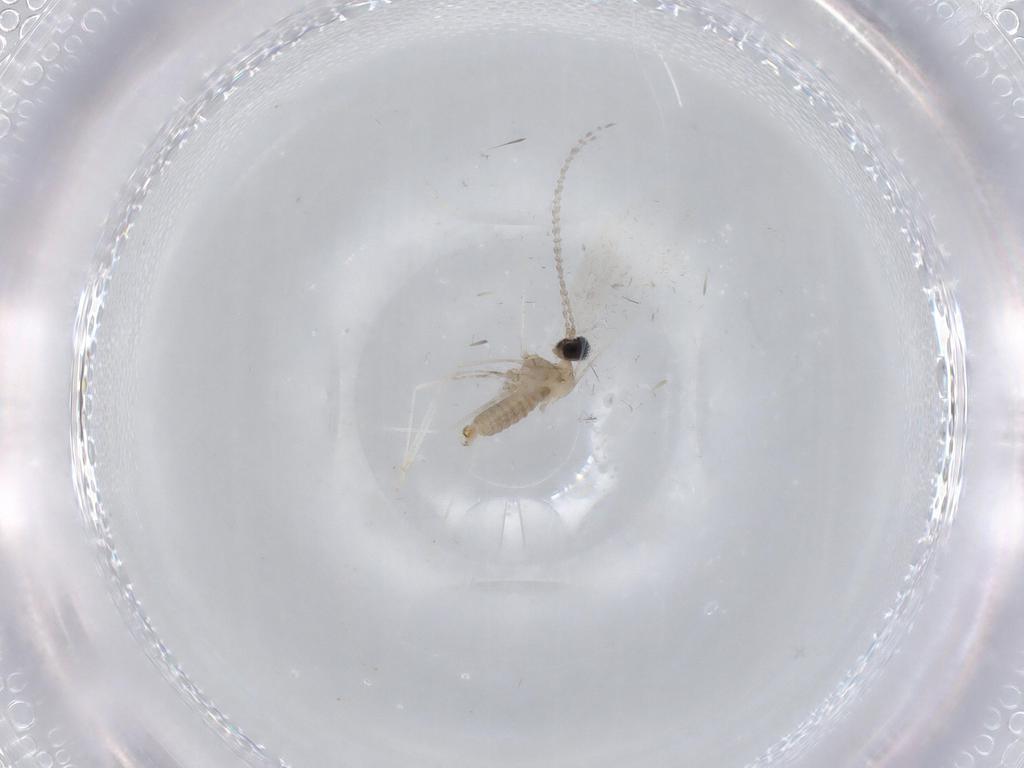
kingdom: Animalia
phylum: Arthropoda
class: Insecta
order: Diptera
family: Cecidomyiidae
